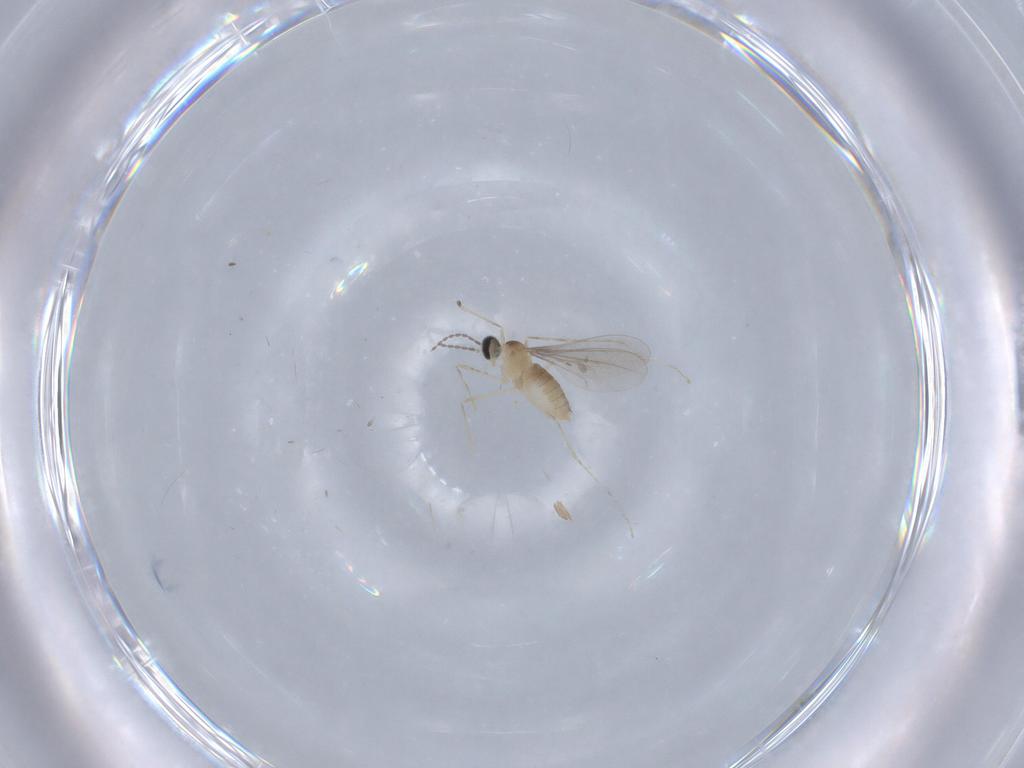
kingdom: Animalia
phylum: Arthropoda
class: Insecta
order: Diptera
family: Cecidomyiidae
